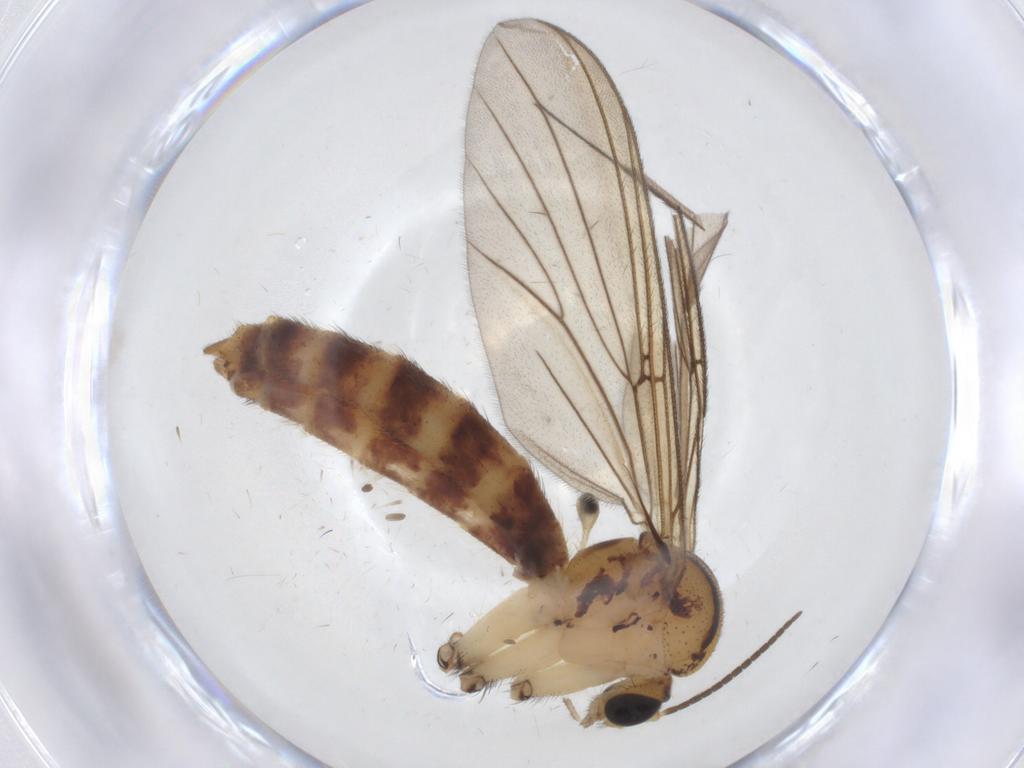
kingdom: Animalia
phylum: Arthropoda
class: Insecta
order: Diptera
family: Mycetophilidae
